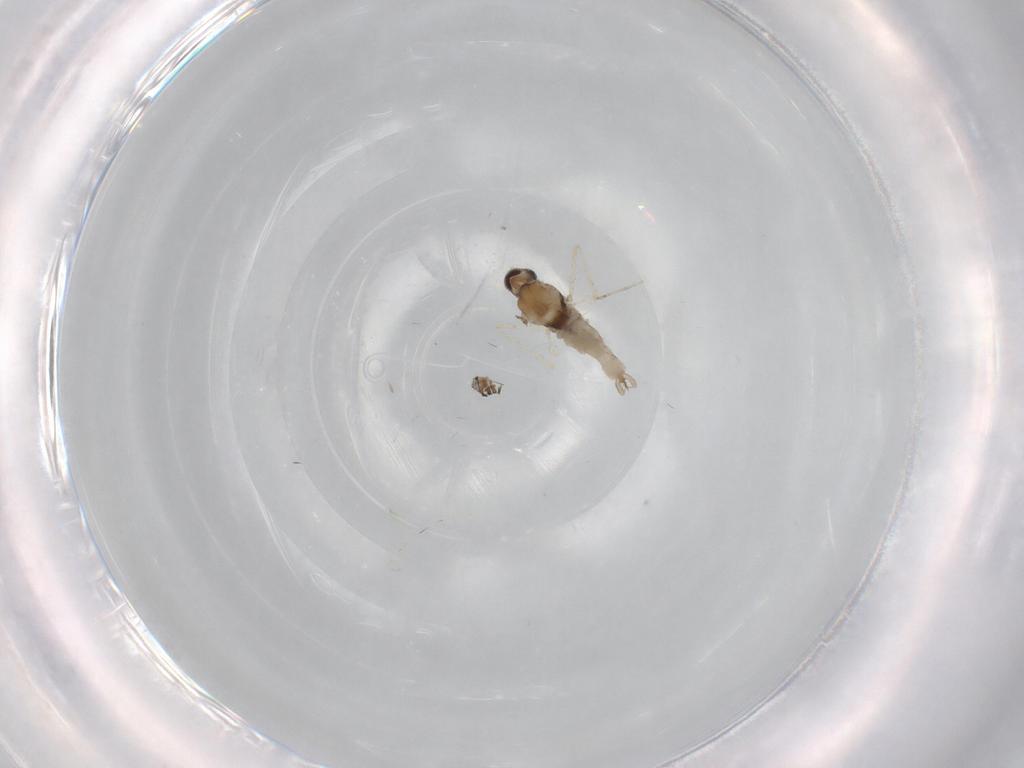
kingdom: Animalia
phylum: Arthropoda
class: Insecta
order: Diptera
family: Cecidomyiidae
